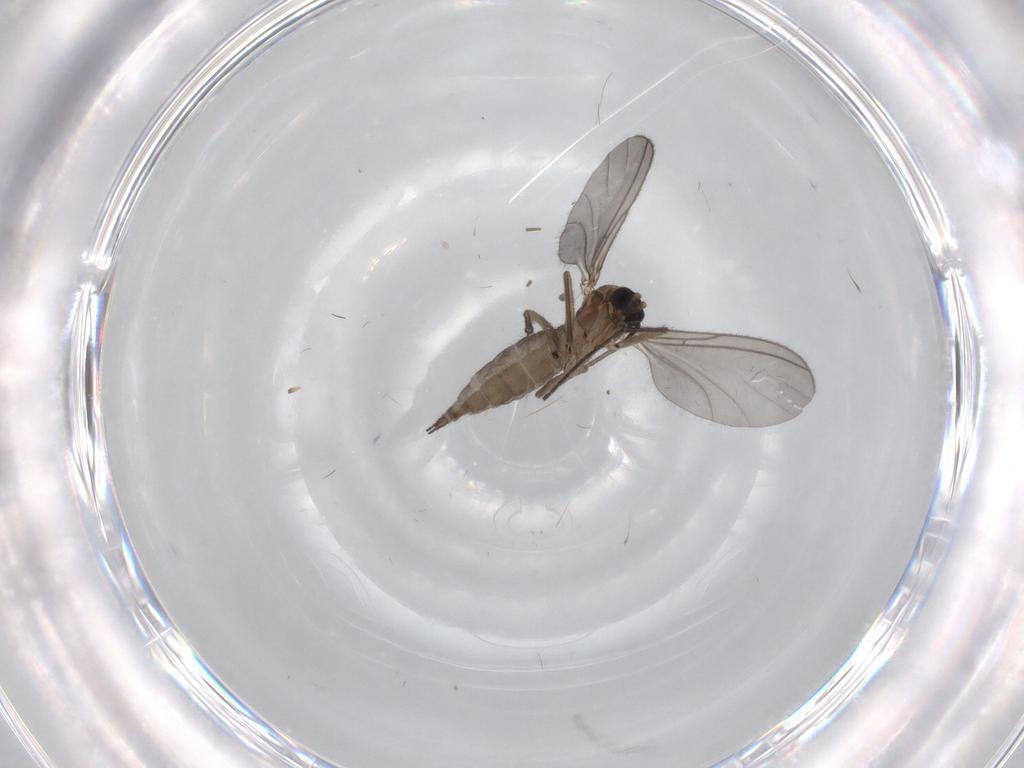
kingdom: Animalia
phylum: Arthropoda
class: Insecta
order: Diptera
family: Sciaridae
